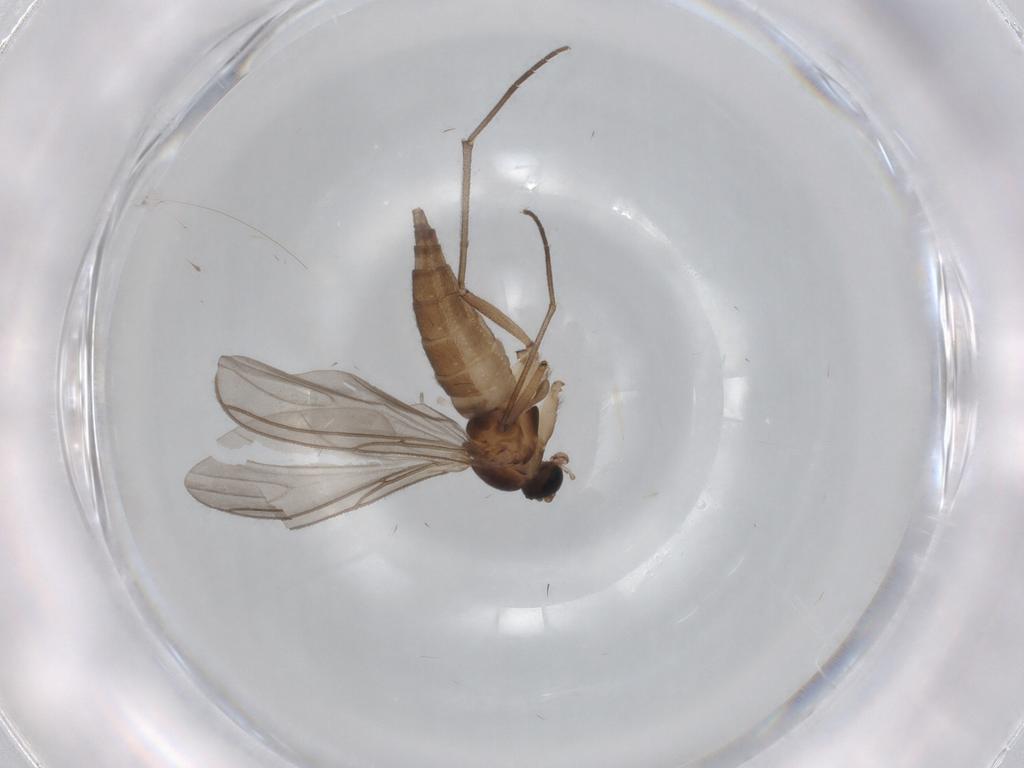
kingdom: Animalia
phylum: Arthropoda
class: Insecta
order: Diptera
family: Sciaridae
